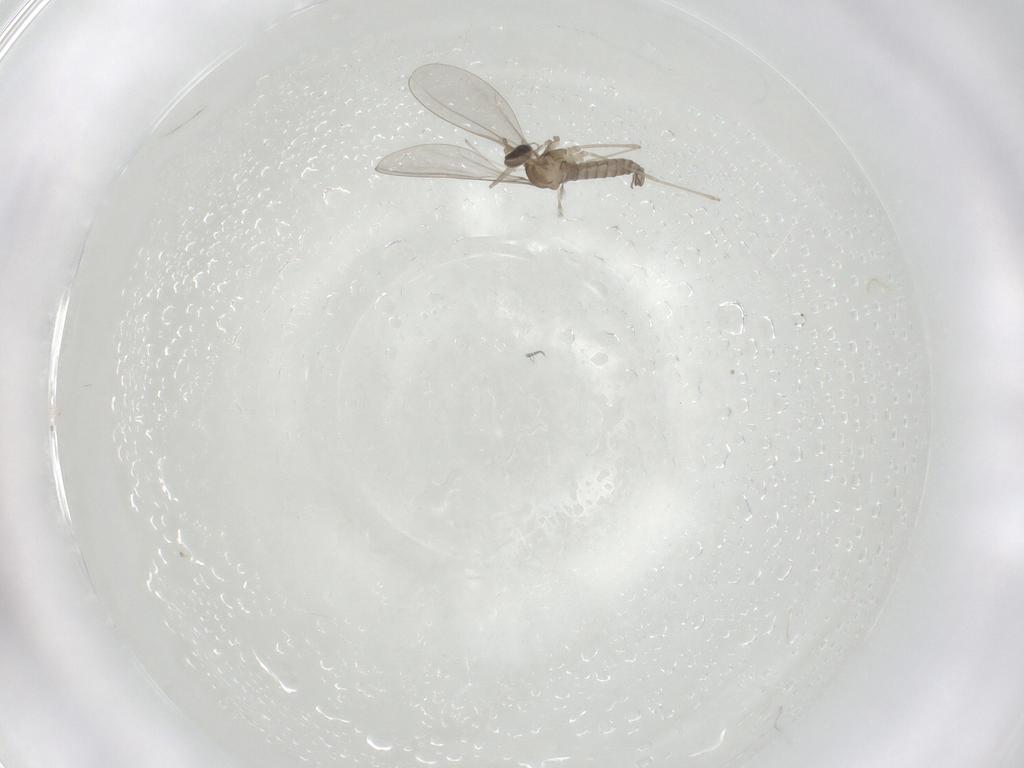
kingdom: Animalia
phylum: Arthropoda
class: Insecta
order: Diptera
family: Cecidomyiidae
